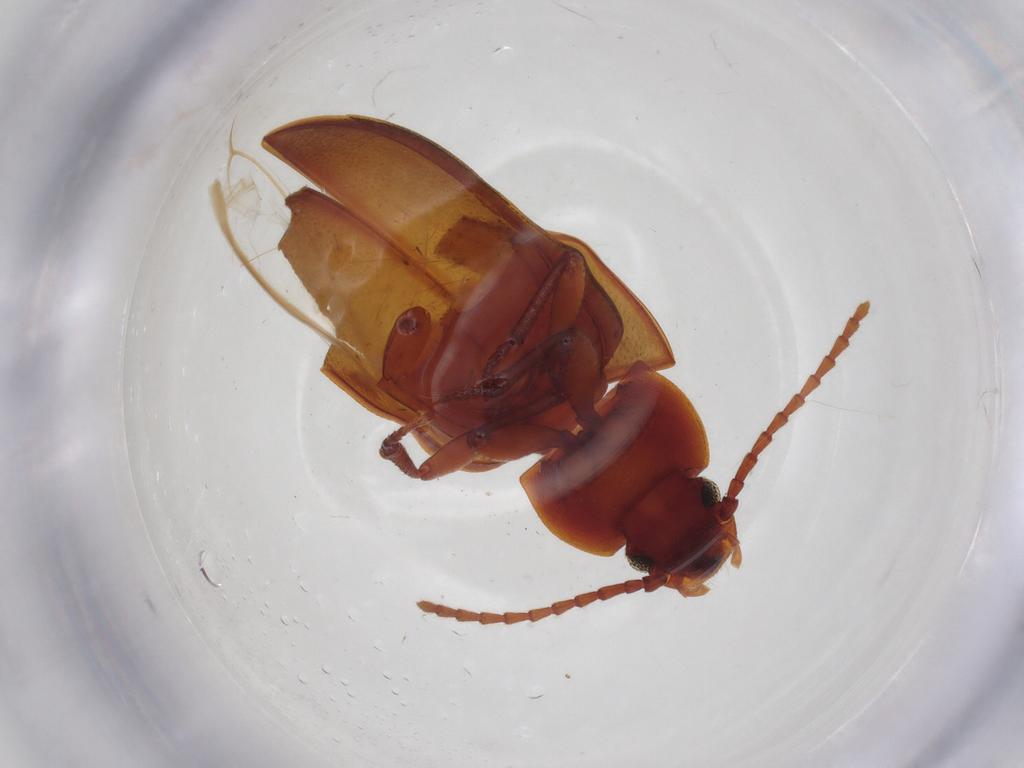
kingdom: Animalia
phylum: Arthropoda
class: Insecta
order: Coleoptera
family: Tenebrionidae
